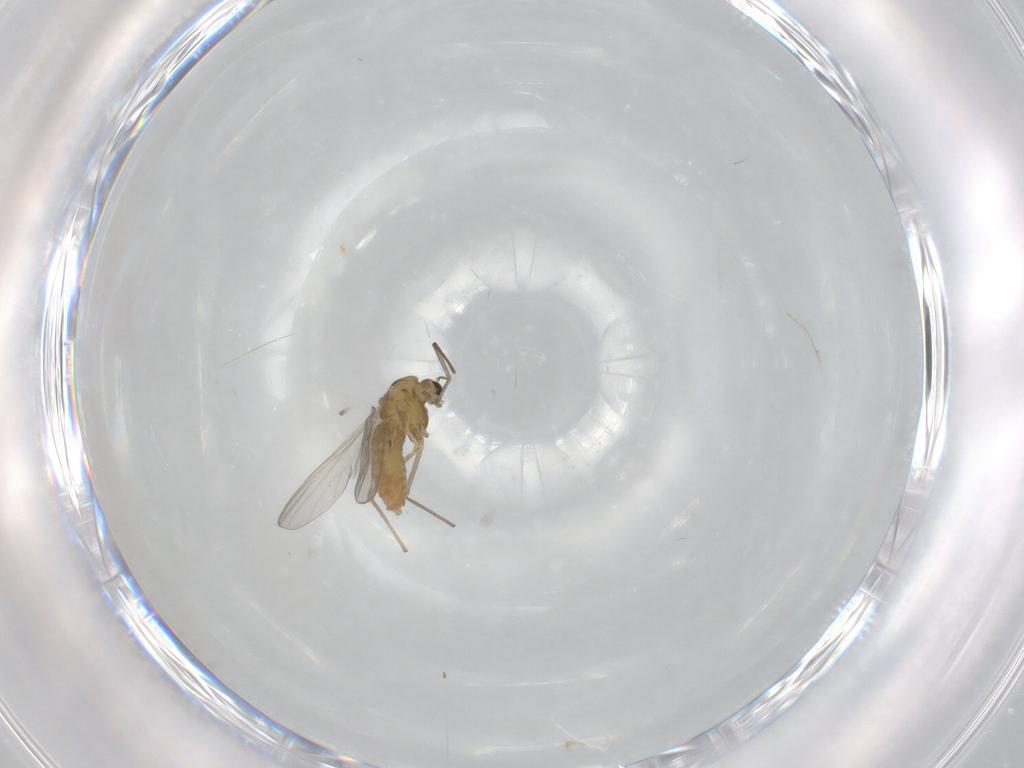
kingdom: Animalia
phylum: Arthropoda
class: Insecta
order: Diptera
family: Chironomidae
